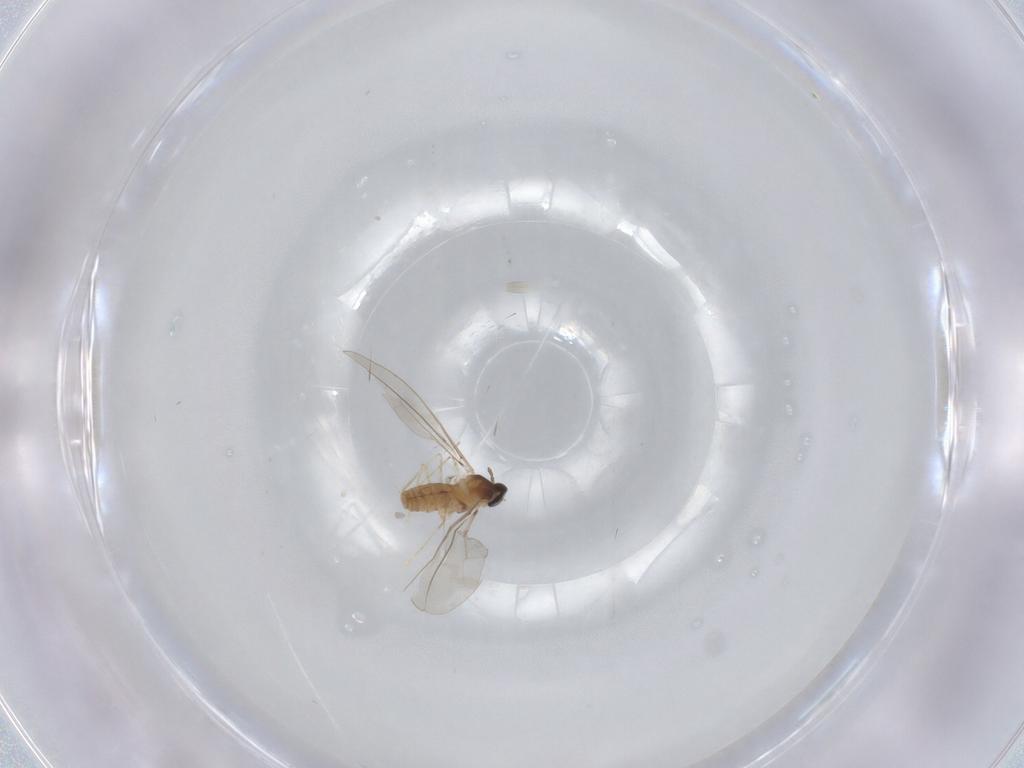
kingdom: Animalia
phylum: Arthropoda
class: Insecta
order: Diptera
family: Cecidomyiidae
